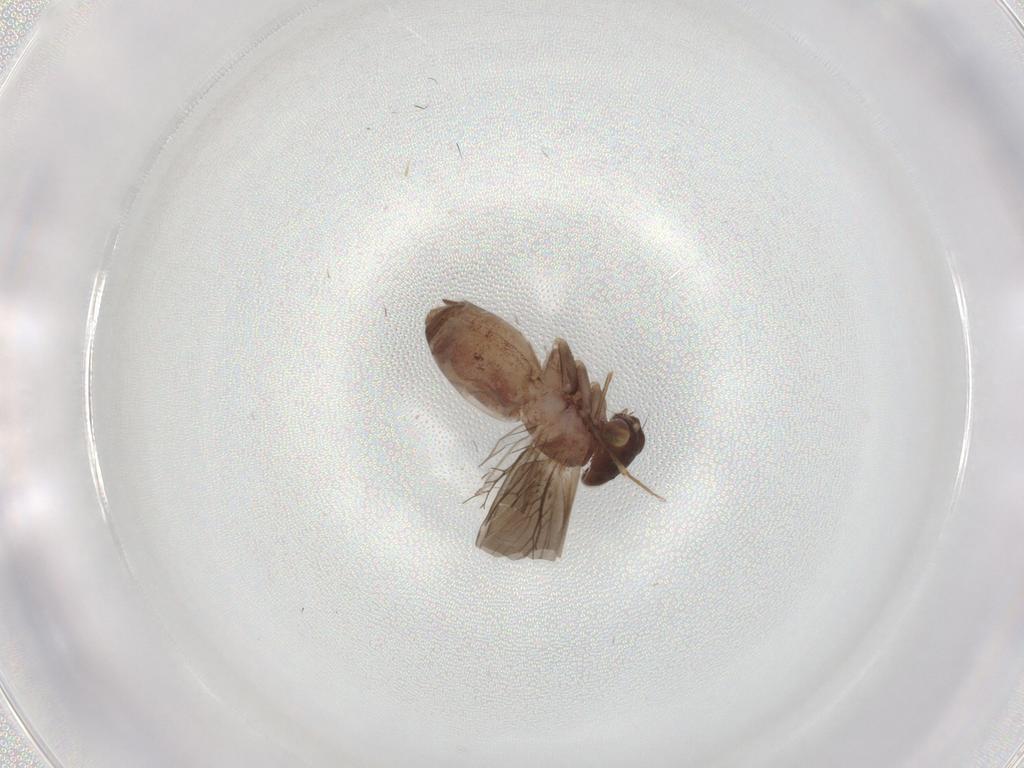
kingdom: Animalia
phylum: Arthropoda
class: Insecta
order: Psocodea
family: Lepidopsocidae
